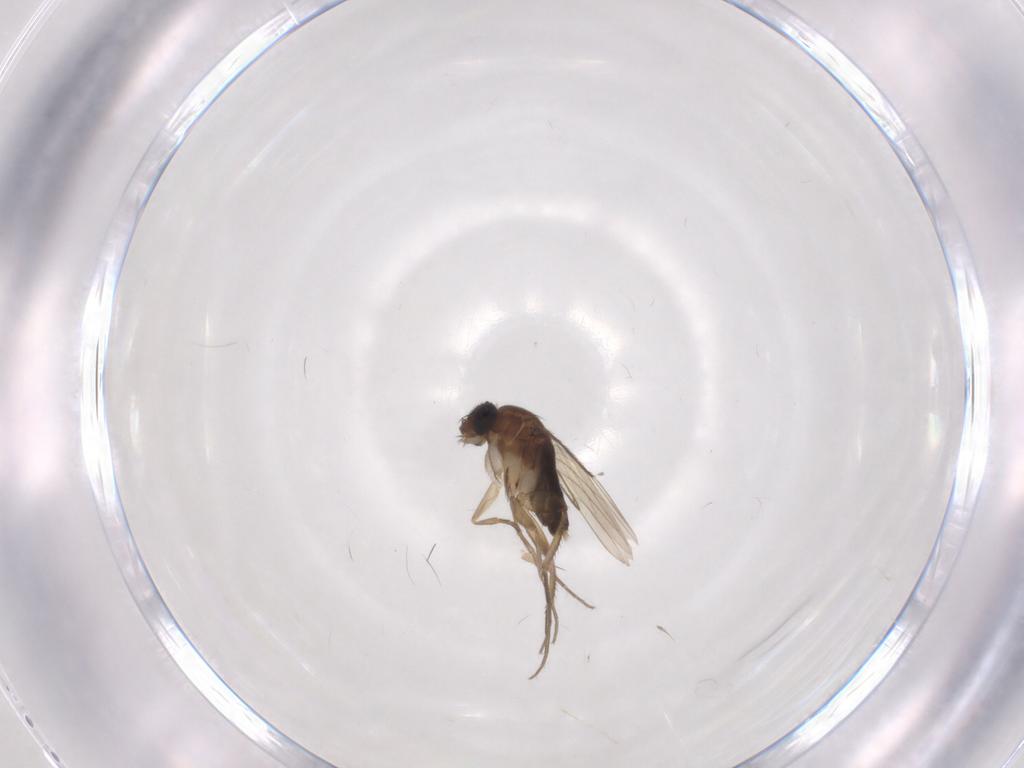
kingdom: Animalia
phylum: Arthropoda
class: Insecta
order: Diptera
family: Phoridae
